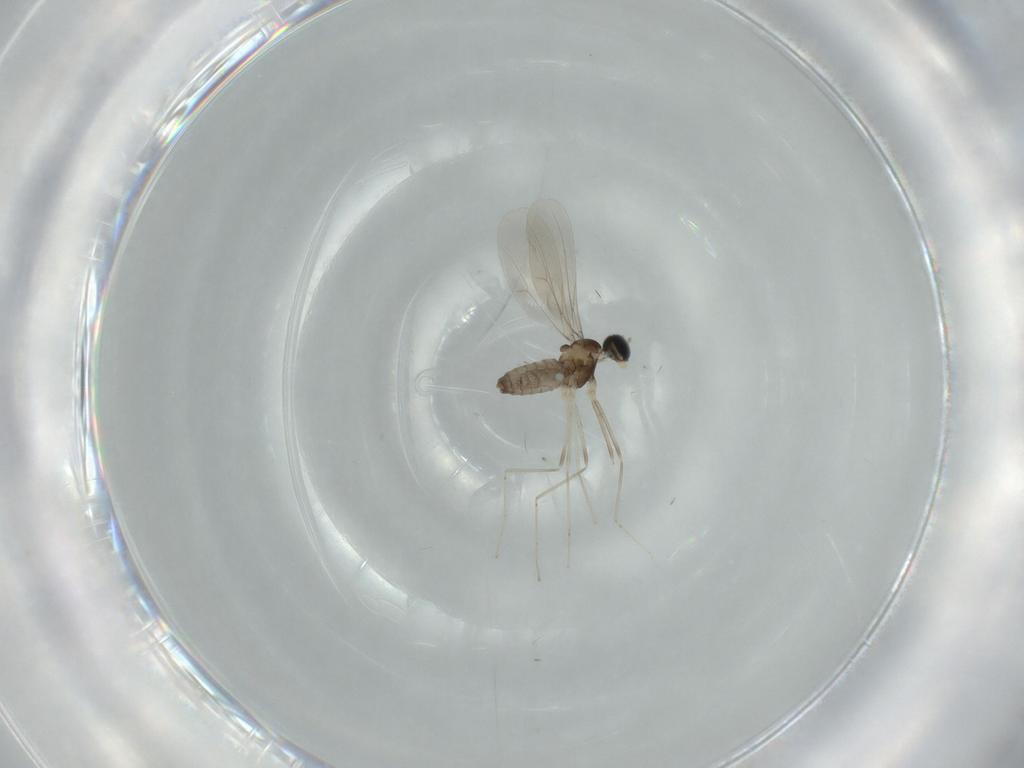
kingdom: Animalia
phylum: Arthropoda
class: Insecta
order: Diptera
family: Cecidomyiidae
